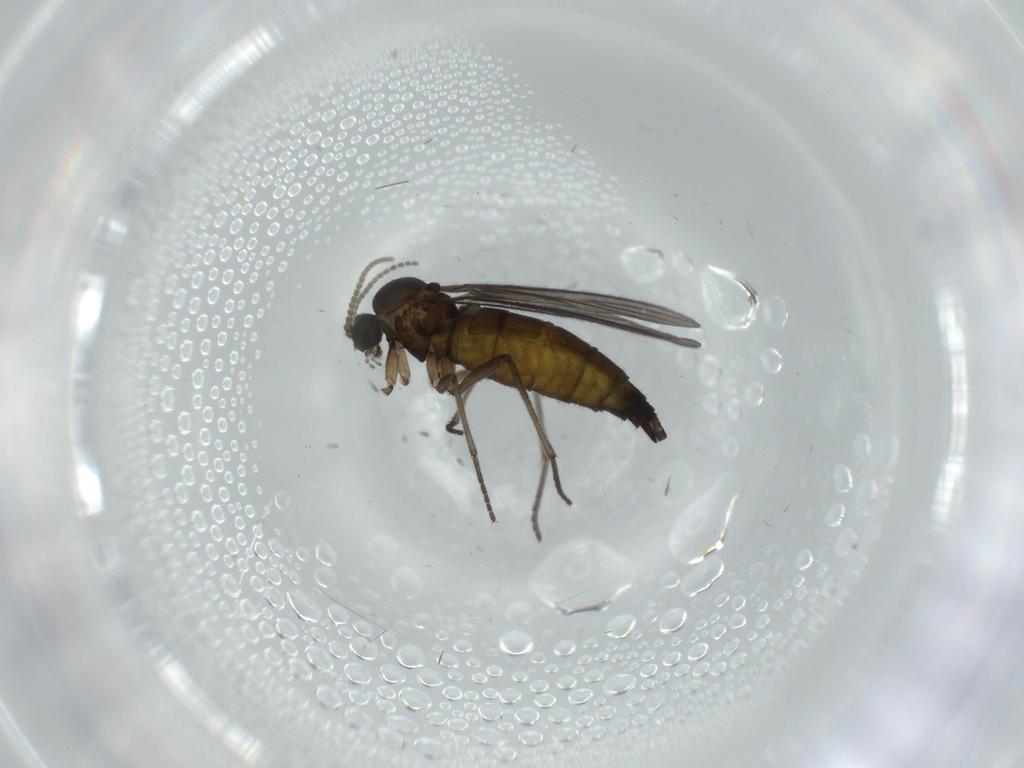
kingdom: Animalia
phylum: Arthropoda
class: Insecta
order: Diptera
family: Sciaridae
